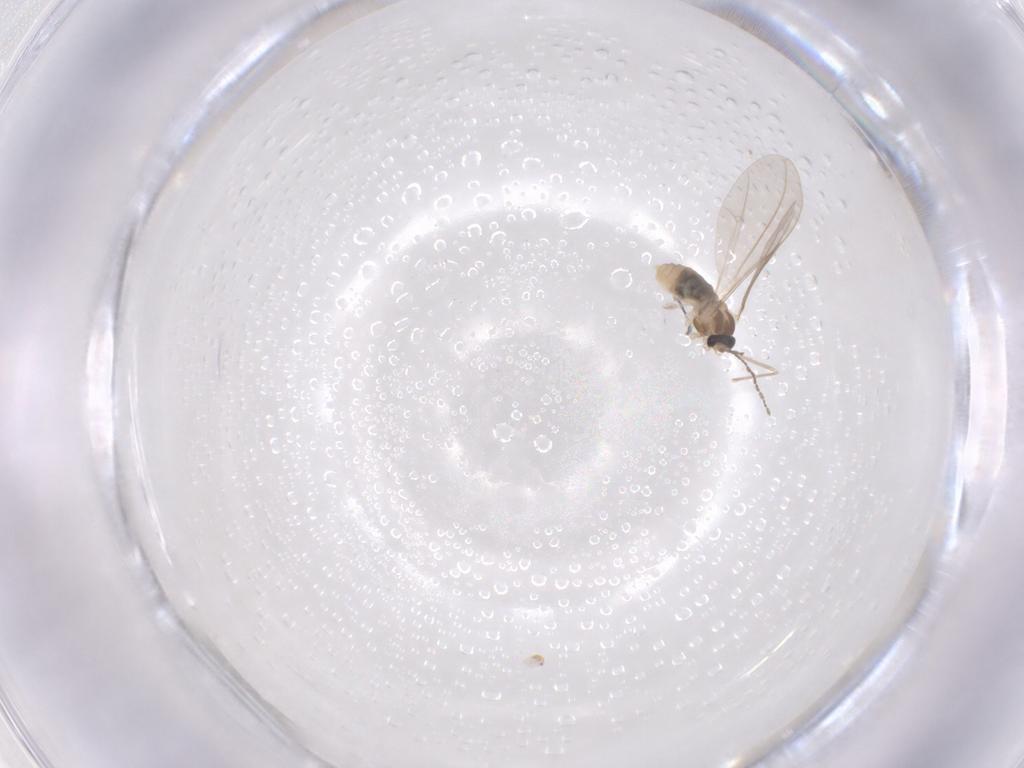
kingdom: Animalia
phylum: Arthropoda
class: Insecta
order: Diptera
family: Cecidomyiidae
